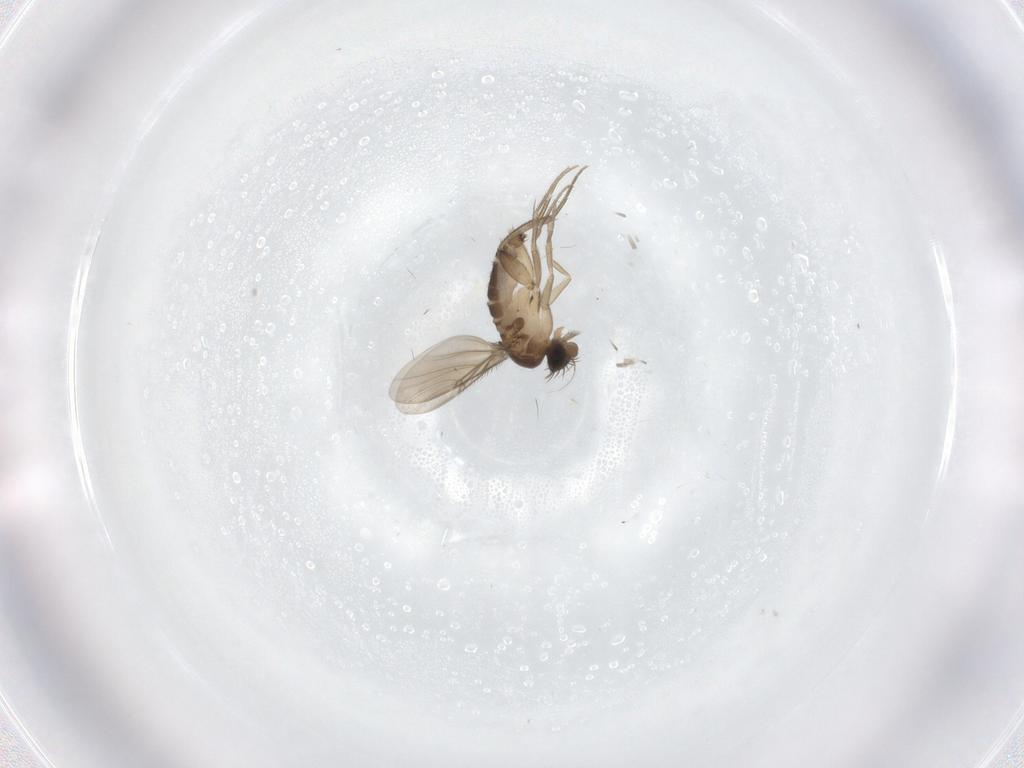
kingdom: Animalia
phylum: Arthropoda
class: Insecta
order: Diptera
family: Phoridae
